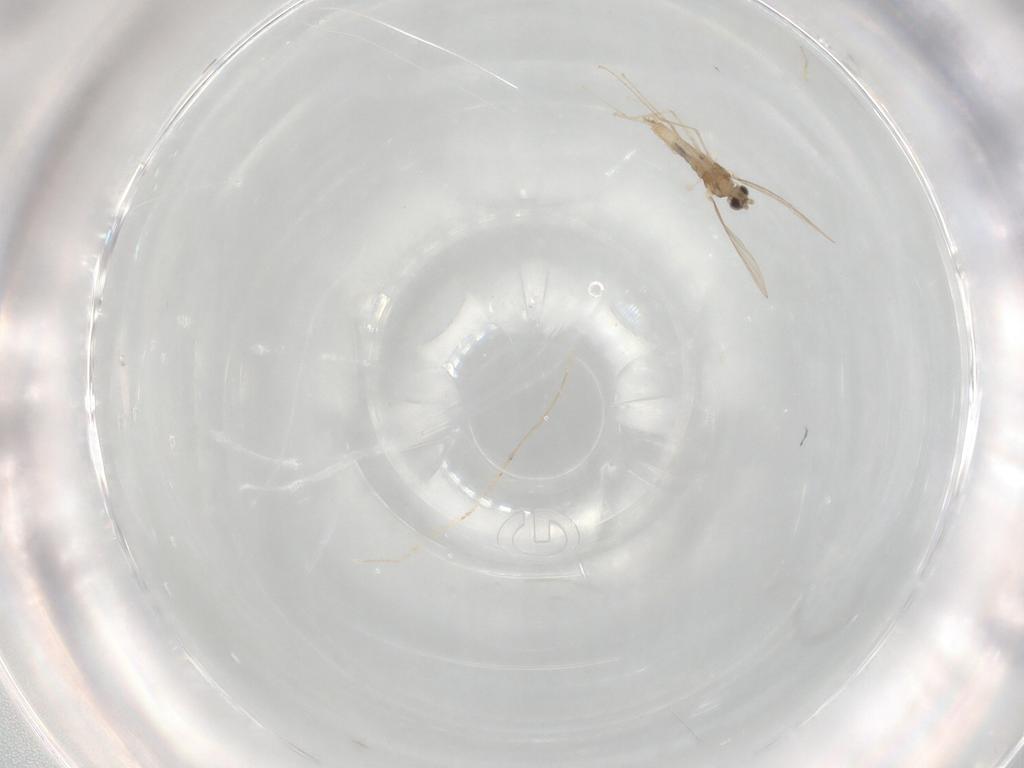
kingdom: Animalia
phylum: Arthropoda
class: Insecta
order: Diptera
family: Cecidomyiidae
